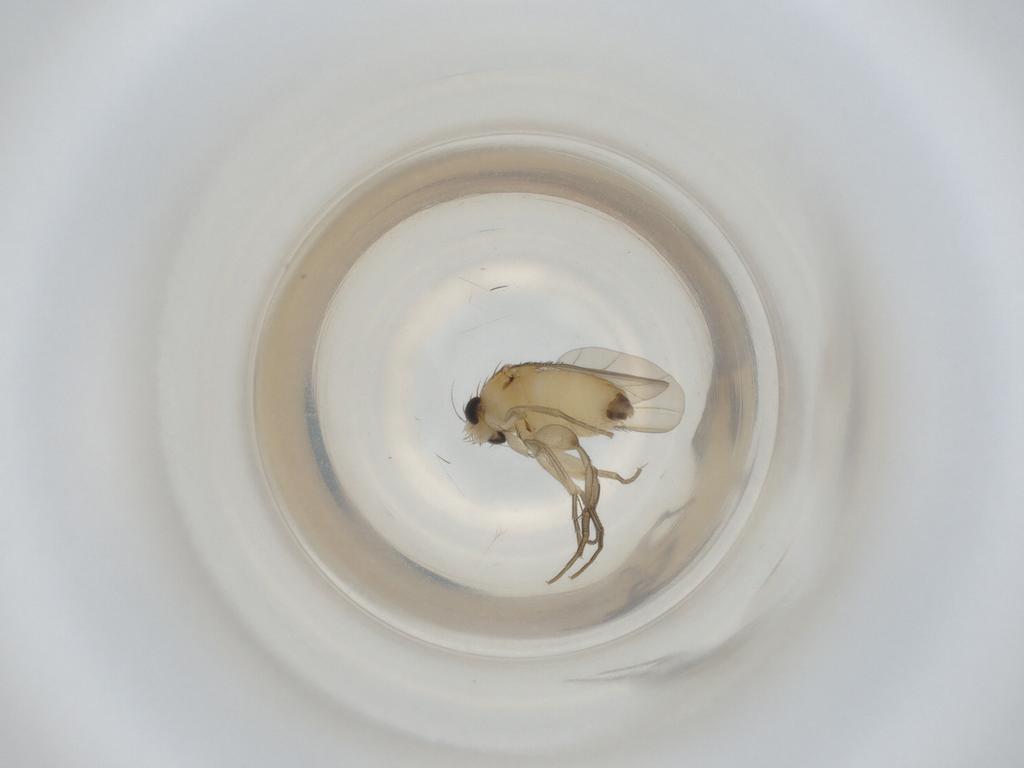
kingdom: Animalia
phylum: Arthropoda
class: Insecta
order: Diptera
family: Phoridae
